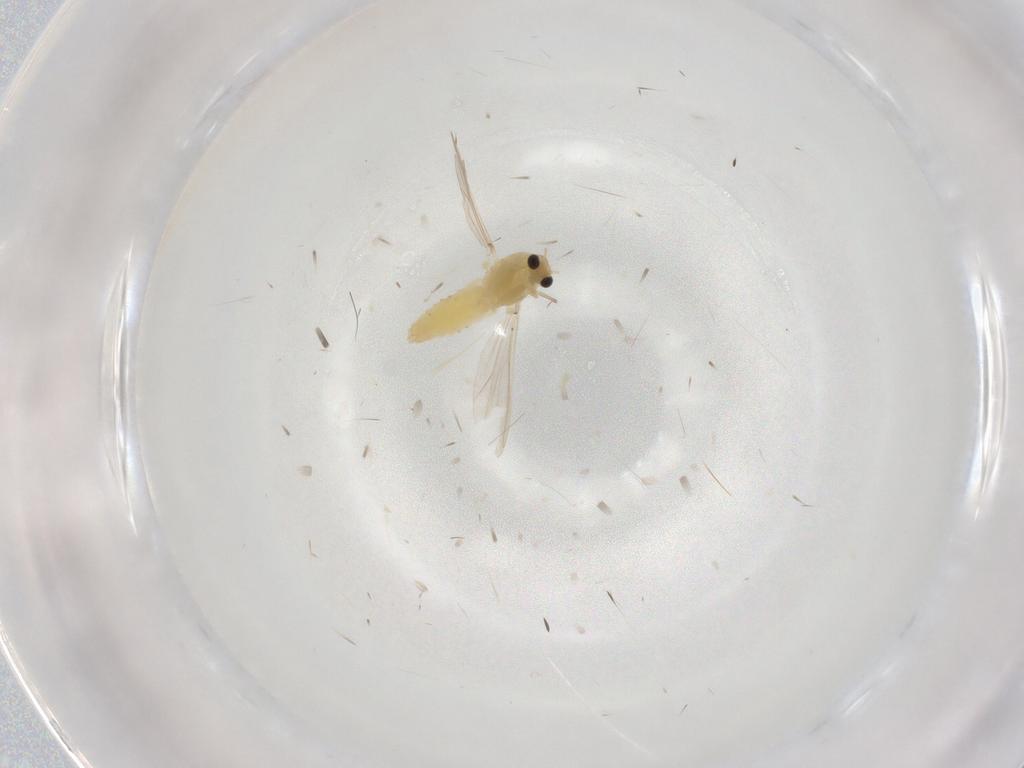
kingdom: Animalia
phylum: Arthropoda
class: Insecta
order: Diptera
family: Chironomidae
